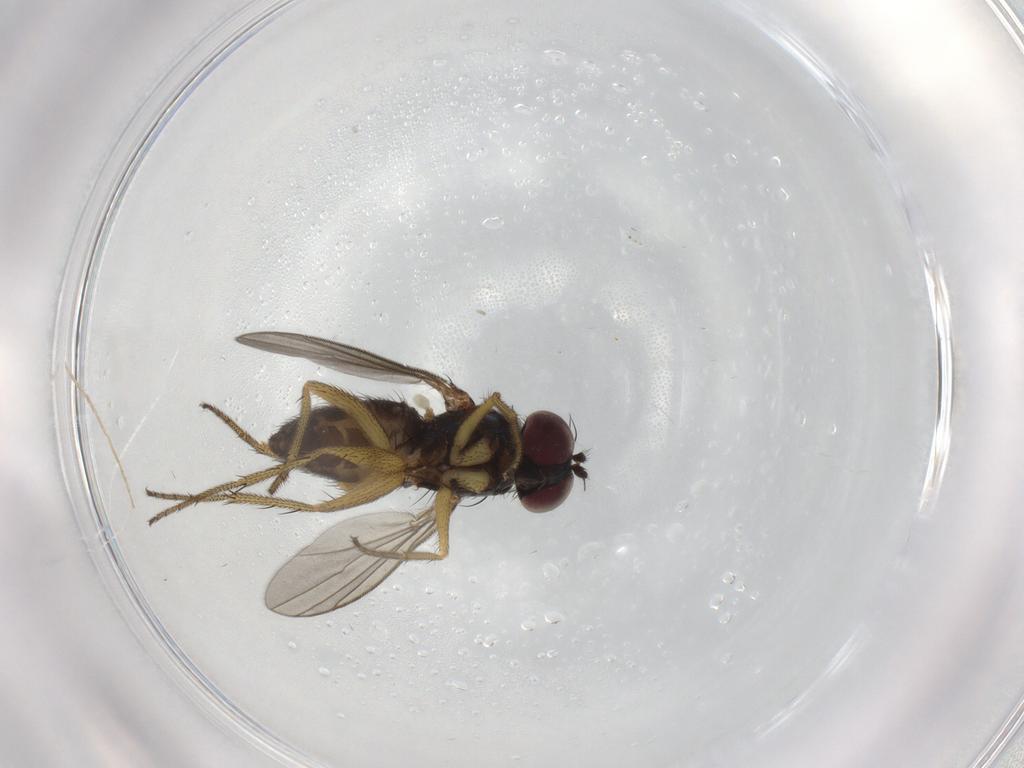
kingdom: Animalia
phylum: Arthropoda
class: Insecta
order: Diptera
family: Chironomidae
